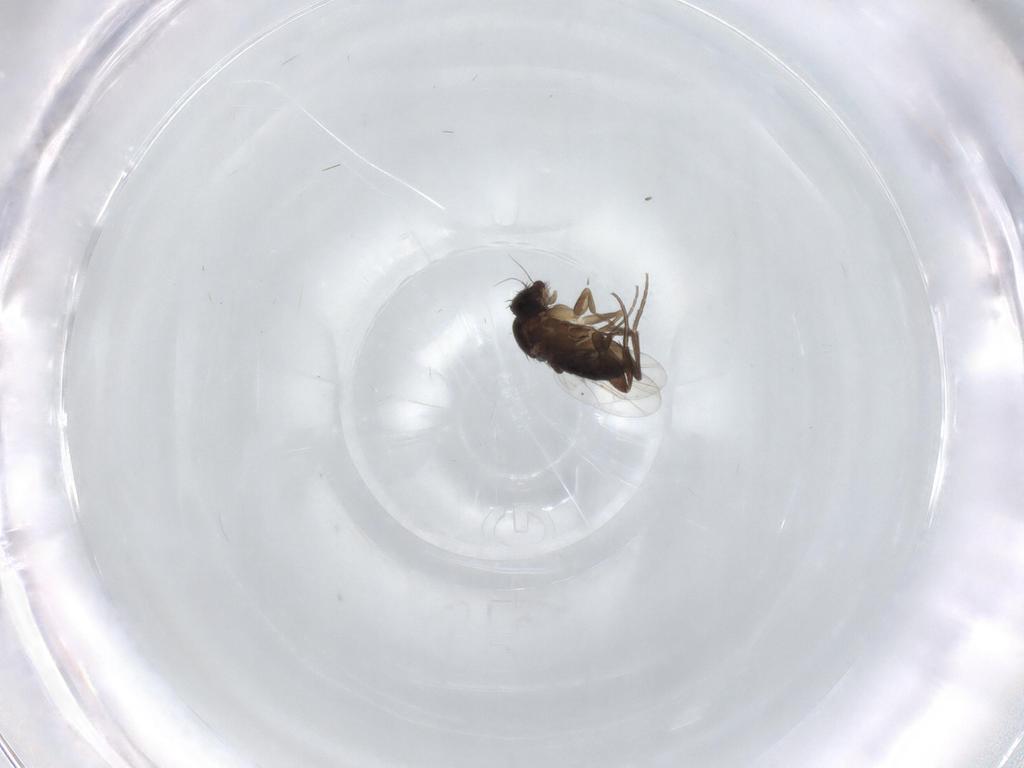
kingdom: Animalia
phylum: Arthropoda
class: Insecta
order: Diptera
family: Phoridae
